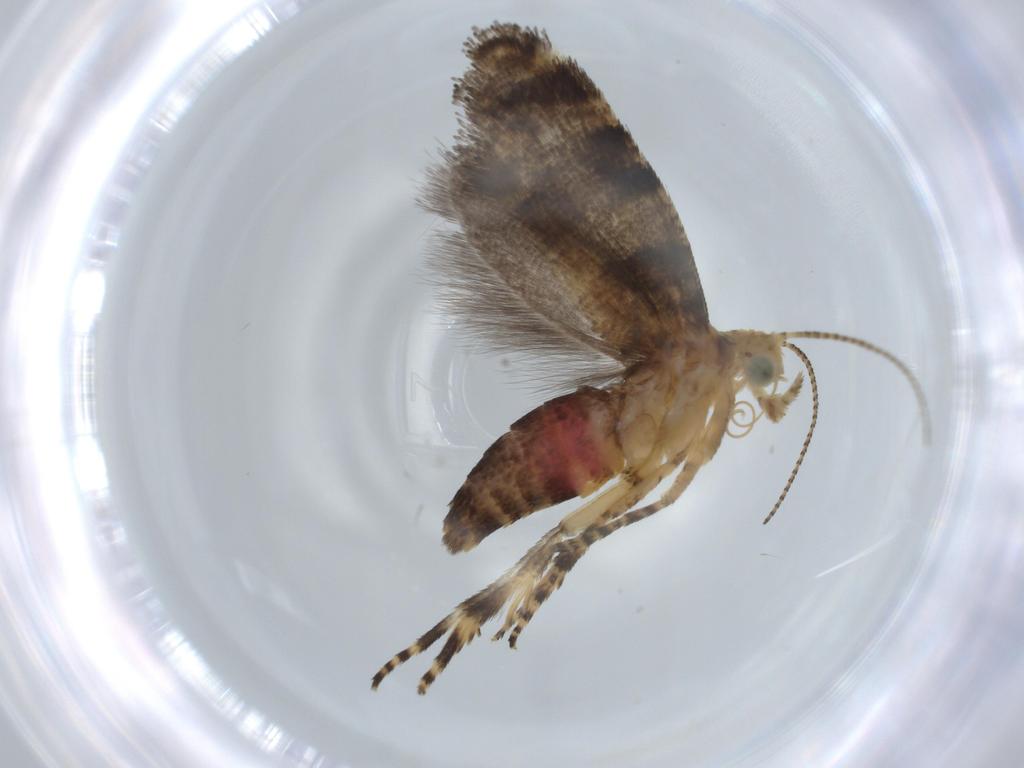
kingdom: Animalia
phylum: Arthropoda
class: Insecta
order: Lepidoptera
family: Glyphipterigidae
